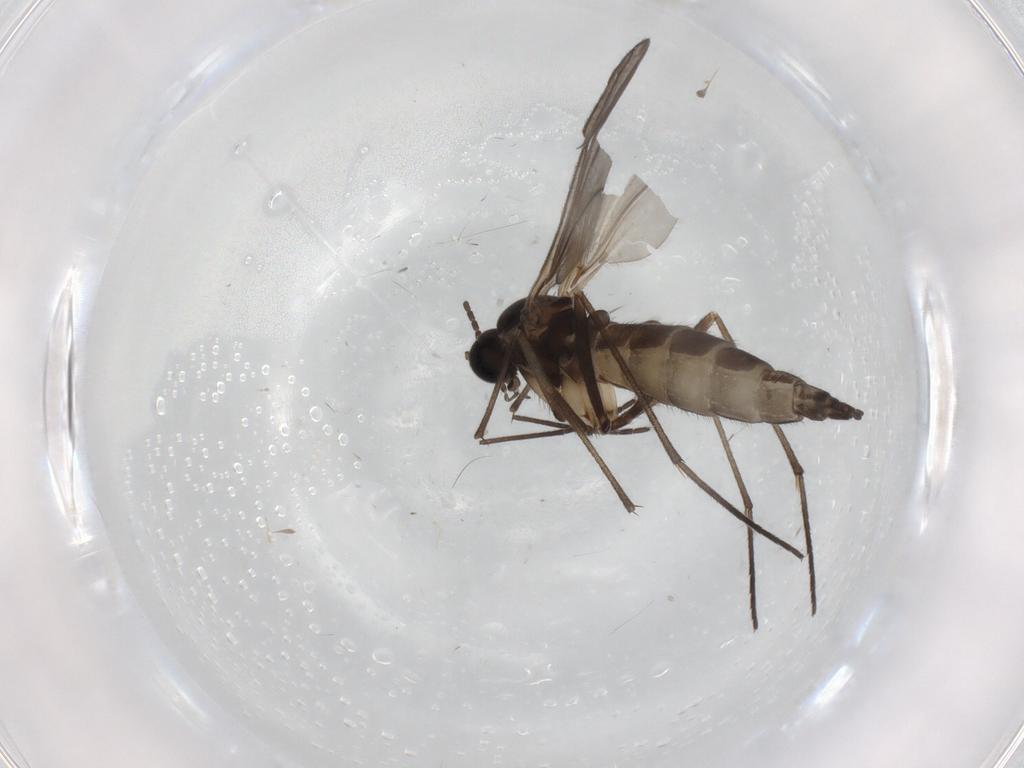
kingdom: Animalia
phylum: Arthropoda
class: Insecta
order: Diptera
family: Sciaridae
